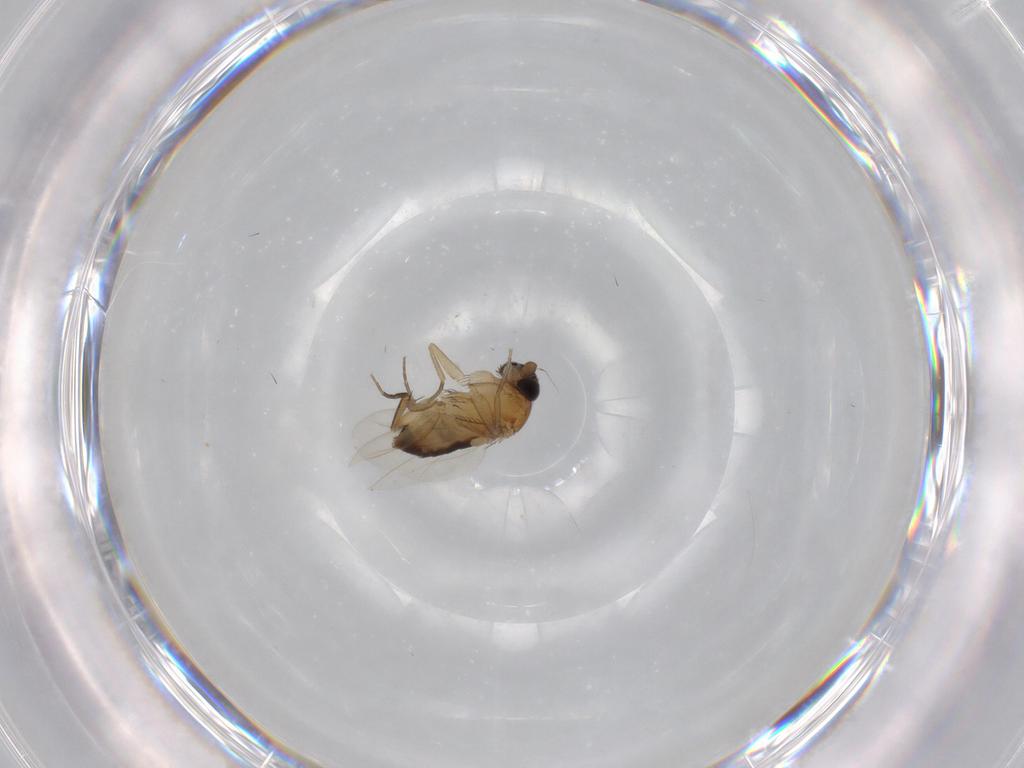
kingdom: Animalia
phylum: Arthropoda
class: Insecta
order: Diptera
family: Phoridae
